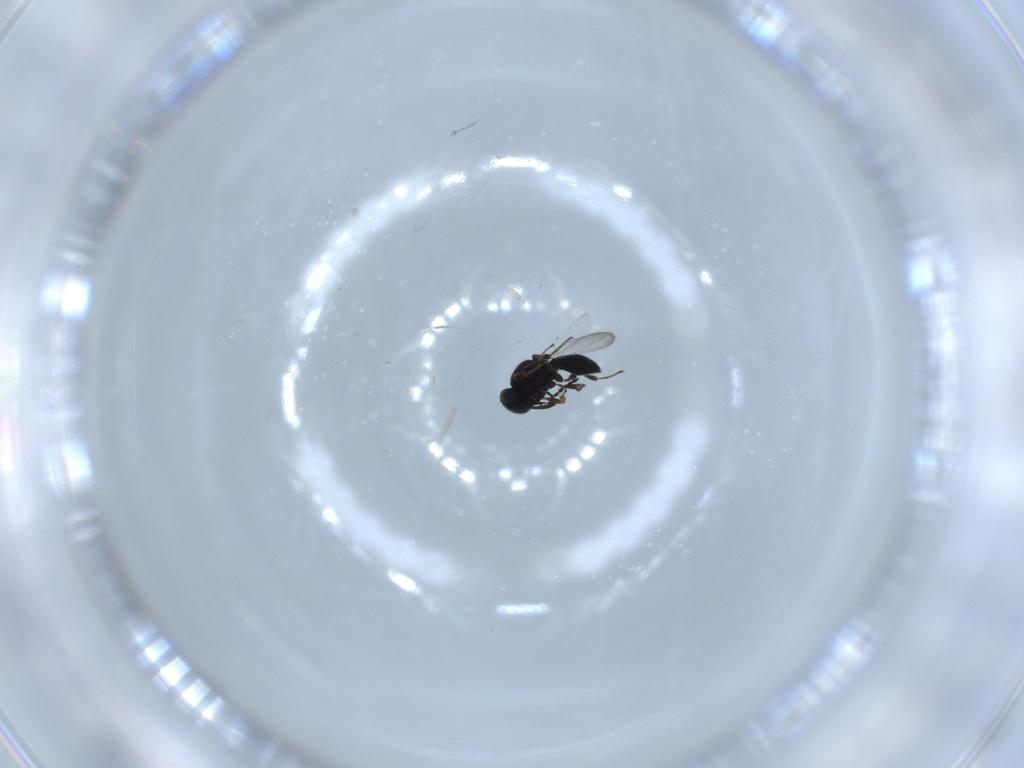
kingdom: Animalia
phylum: Arthropoda
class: Insecta
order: Hymenoptera
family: Platygastridae
